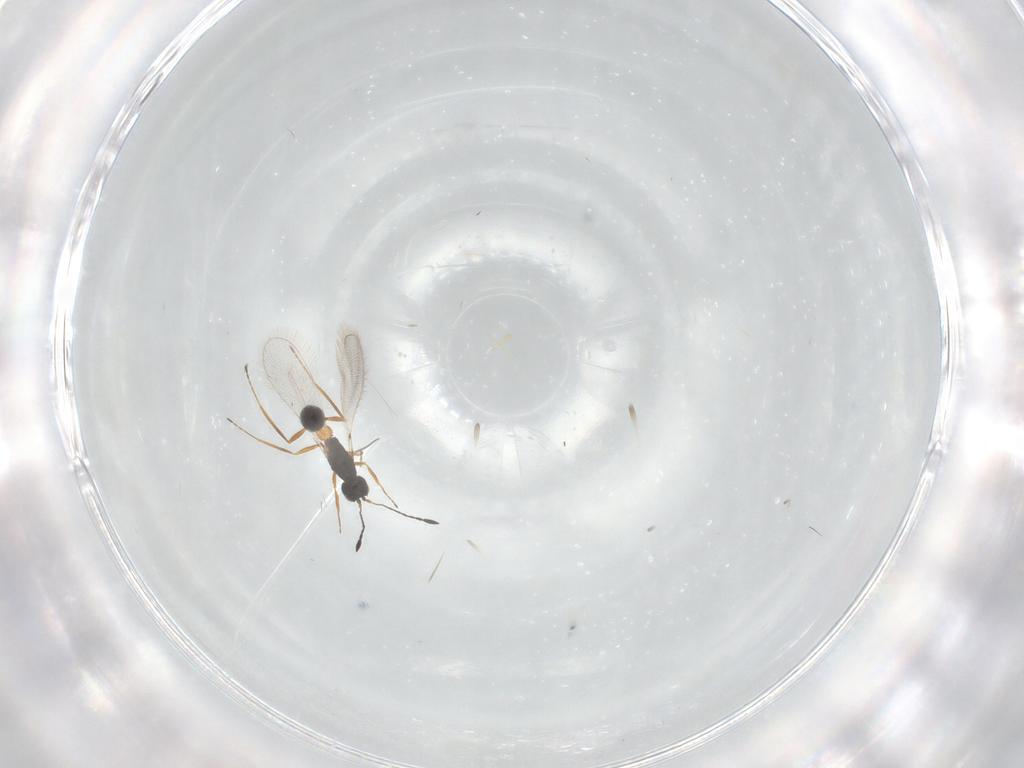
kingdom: Animalia
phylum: Arthropoda
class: Insecta
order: Hymenoptera
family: Mymaridae
